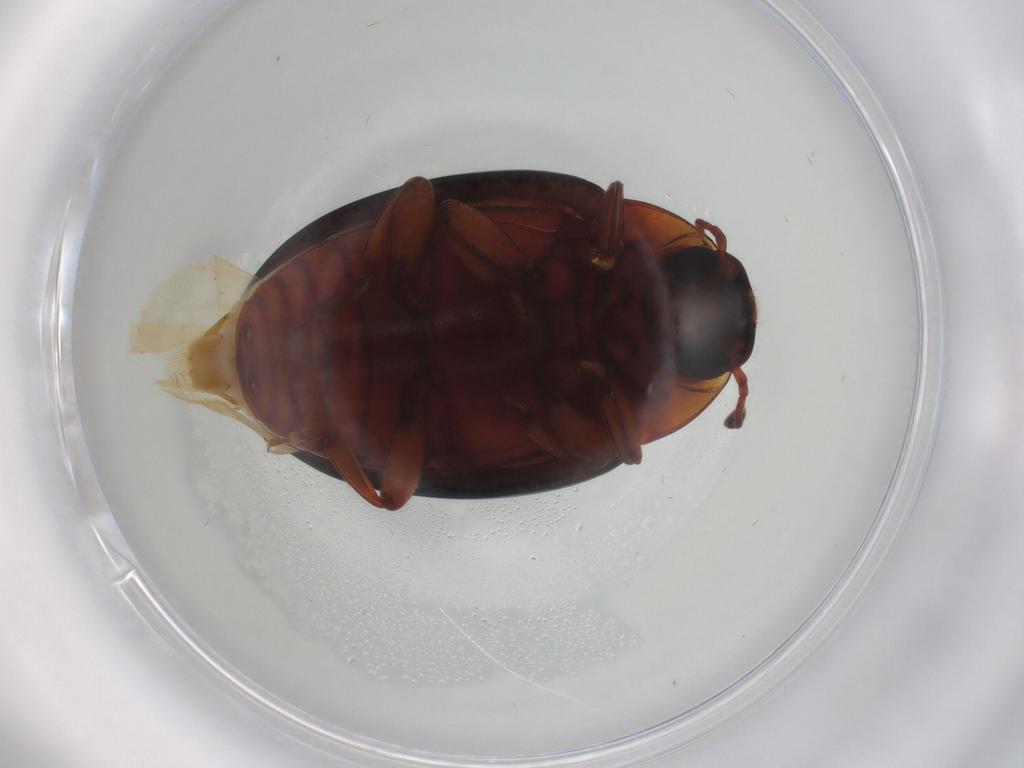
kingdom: Animalia
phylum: Arthropoda
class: Insecta
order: Coleoptera
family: Zopheridae
